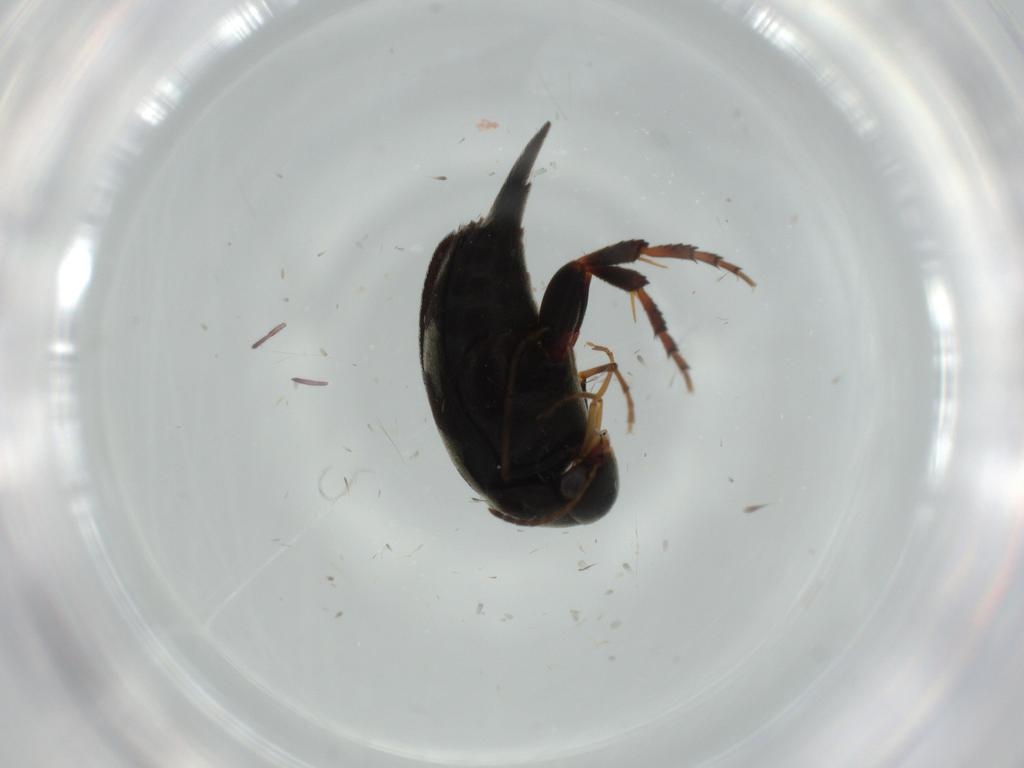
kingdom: Animalia
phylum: Arthropoda
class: Insecta
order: Coleoptera
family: Mordellidae
